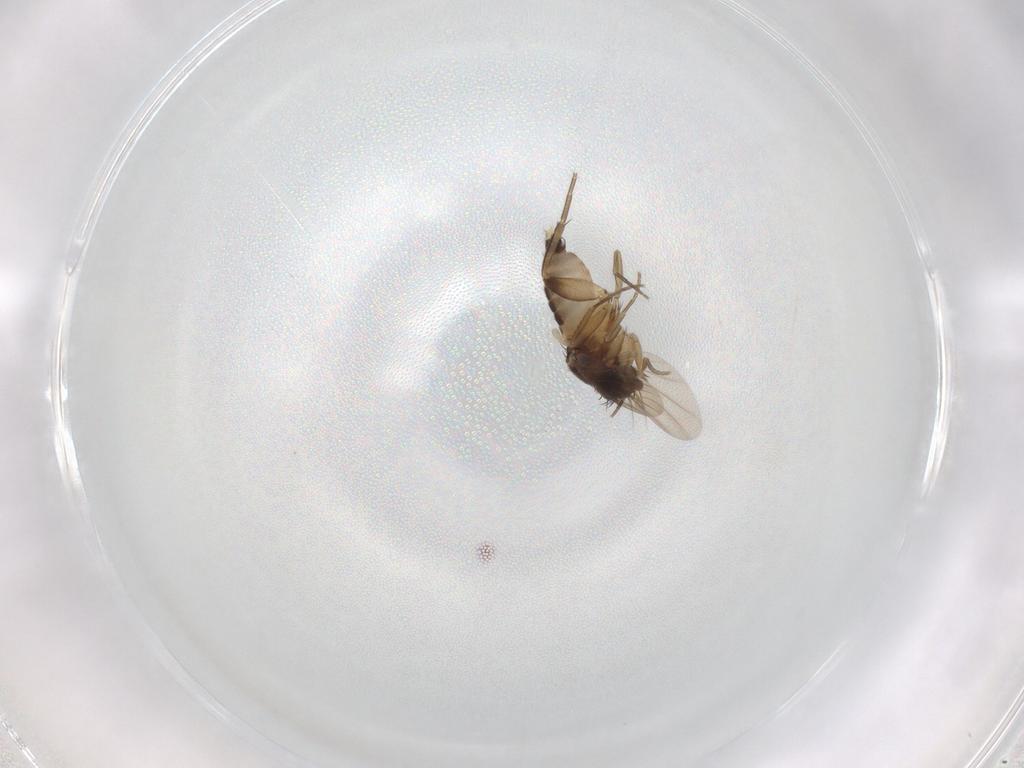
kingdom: Animalia
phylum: Arthropoda
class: Insecta
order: Diptera
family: Phoridae
